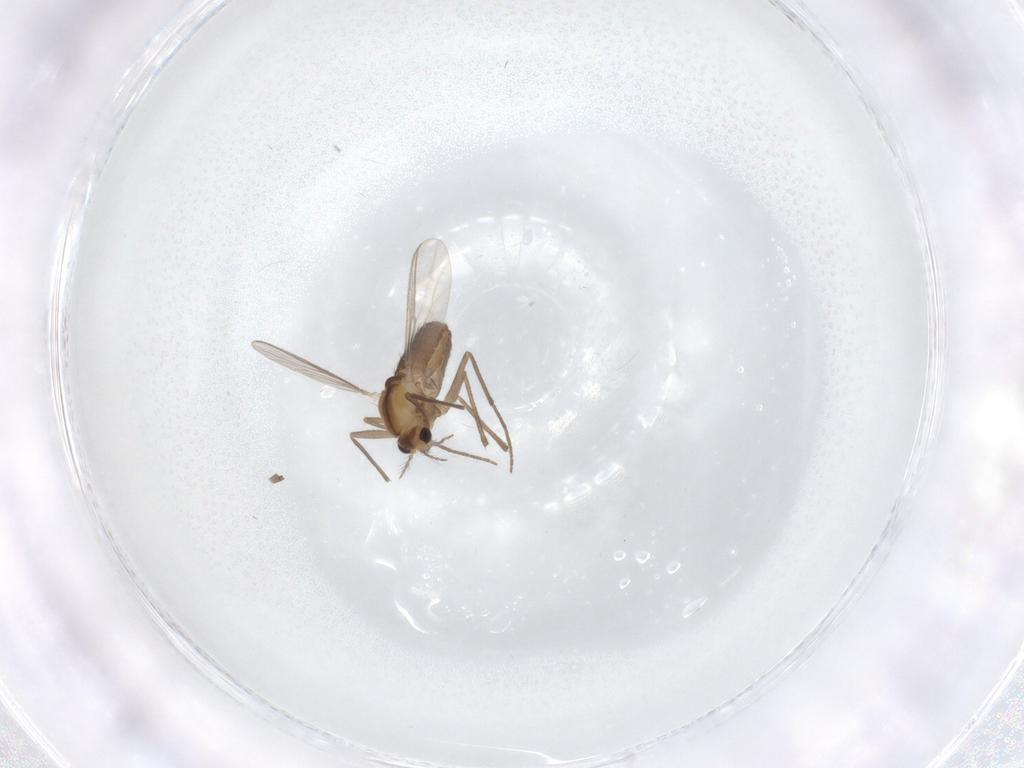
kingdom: Animalia
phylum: Arthropoda
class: Insecta
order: Diptera
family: Chironomidae
